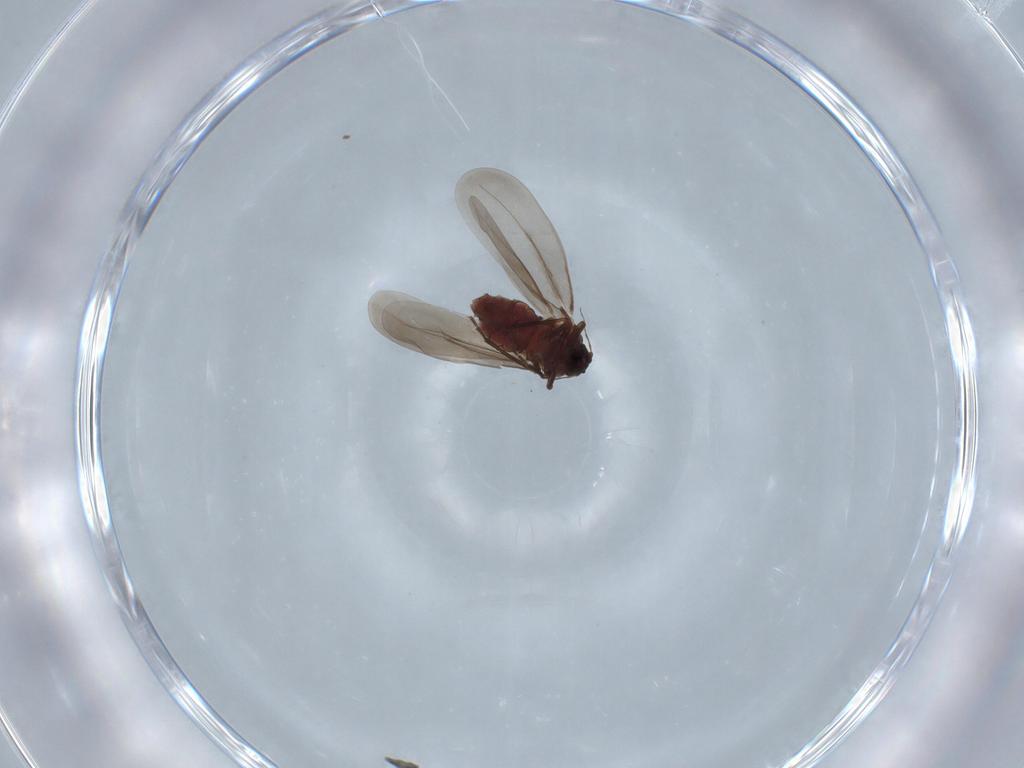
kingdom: Animalia
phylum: Arthropoda
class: Insecta
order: Hemiptera
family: Aleyrodidae
